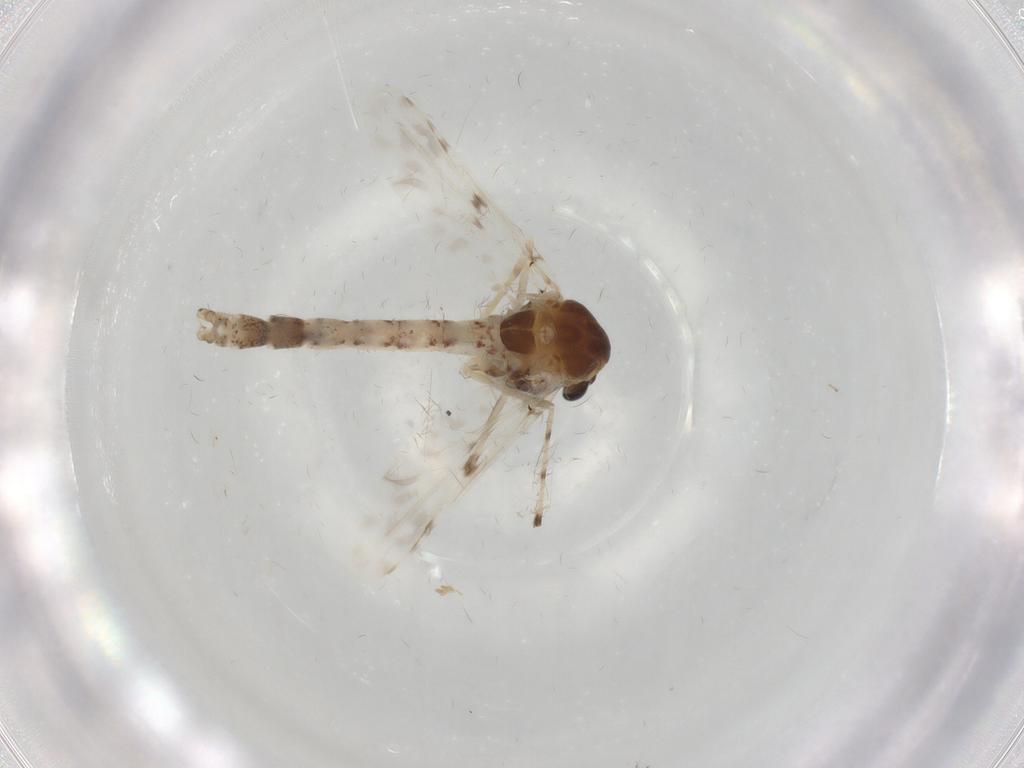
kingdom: Animalia
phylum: Arthropoda
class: Insecta
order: Diptera
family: Chironomidae
